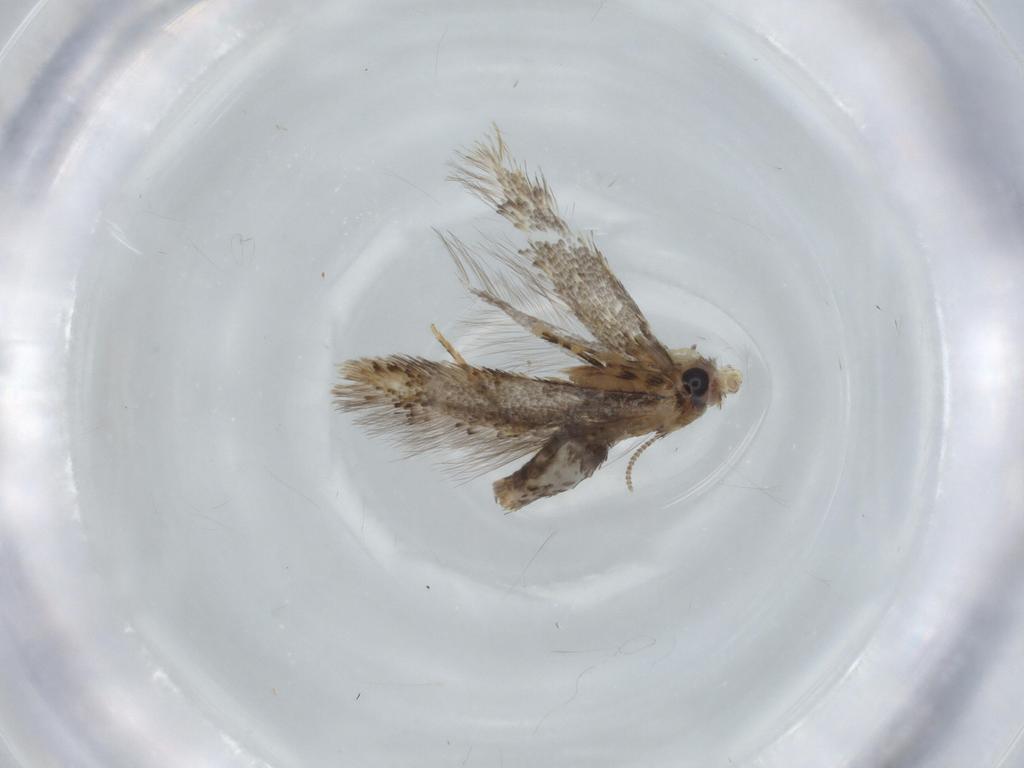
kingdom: Animalia
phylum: Arthropoda
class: Insecta
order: Lepidoptera
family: Tineidae
